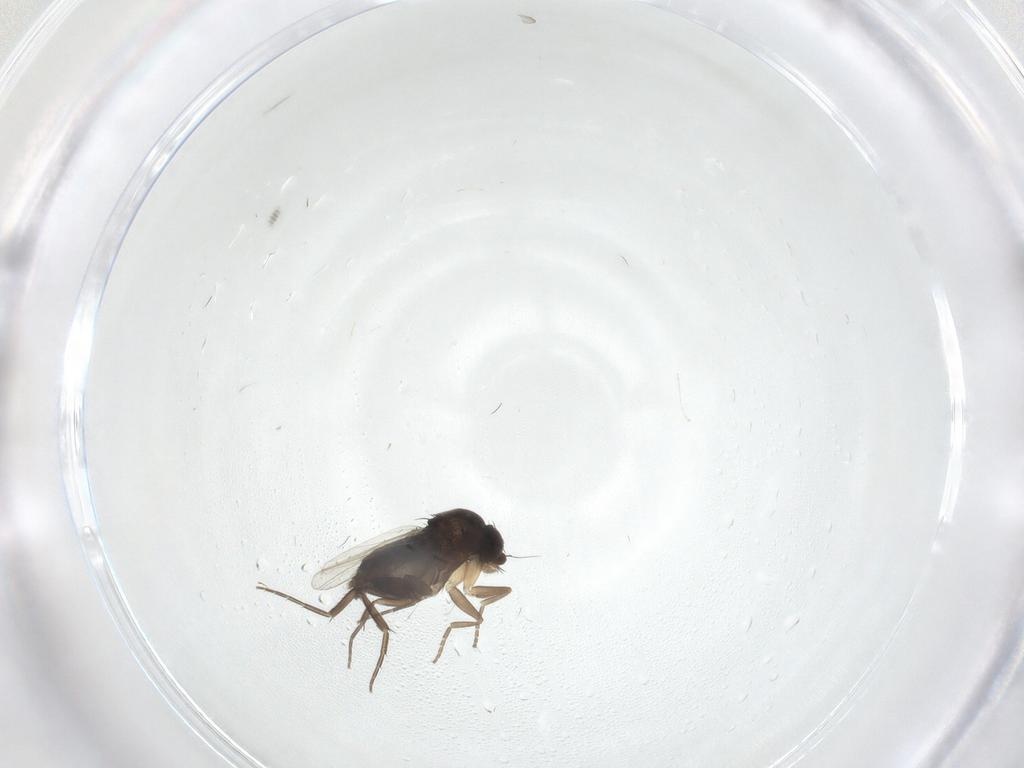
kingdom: Animalia
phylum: Arthropoda
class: Insecta
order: Diptera
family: Phoridae
